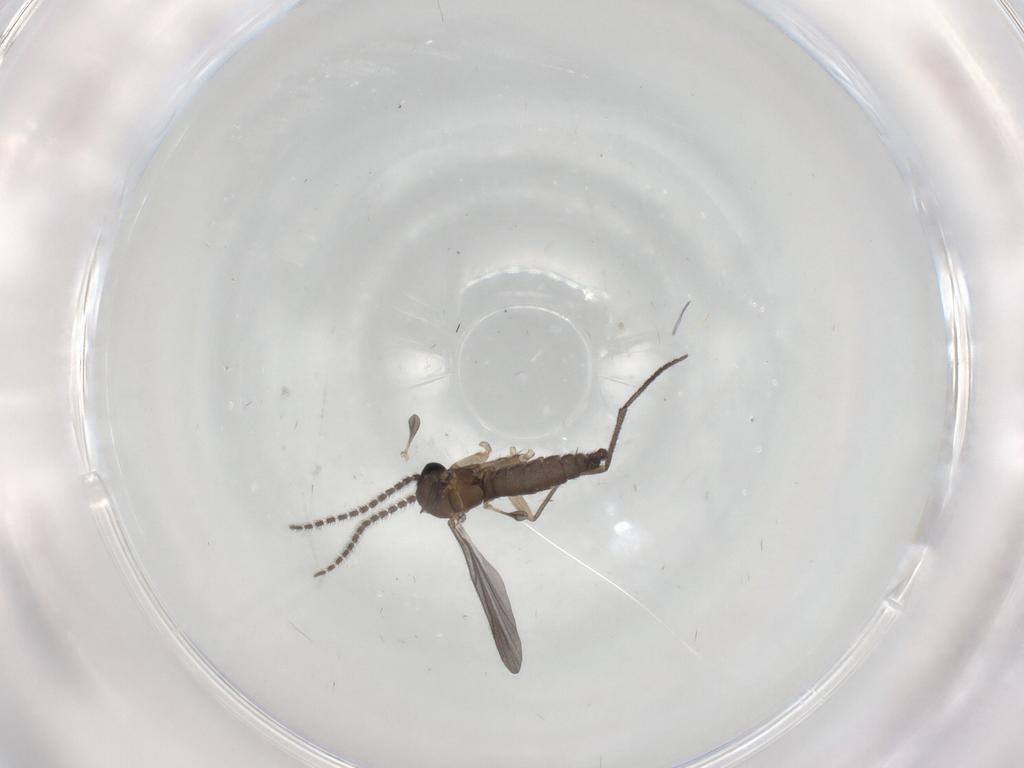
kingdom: Animalia
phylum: Arthropoda
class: Insecta
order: Diptera
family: Sciaridae
